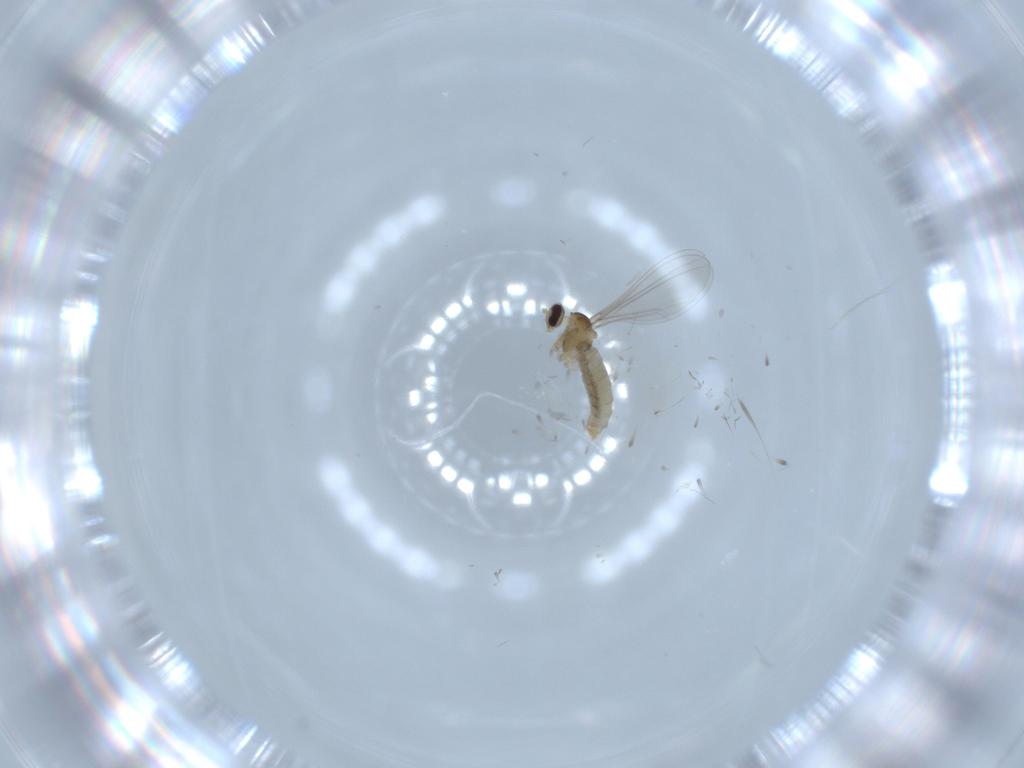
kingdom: Animalia
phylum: Arthropoda
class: Insecta
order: Diptera
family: Cecidomyiidae
